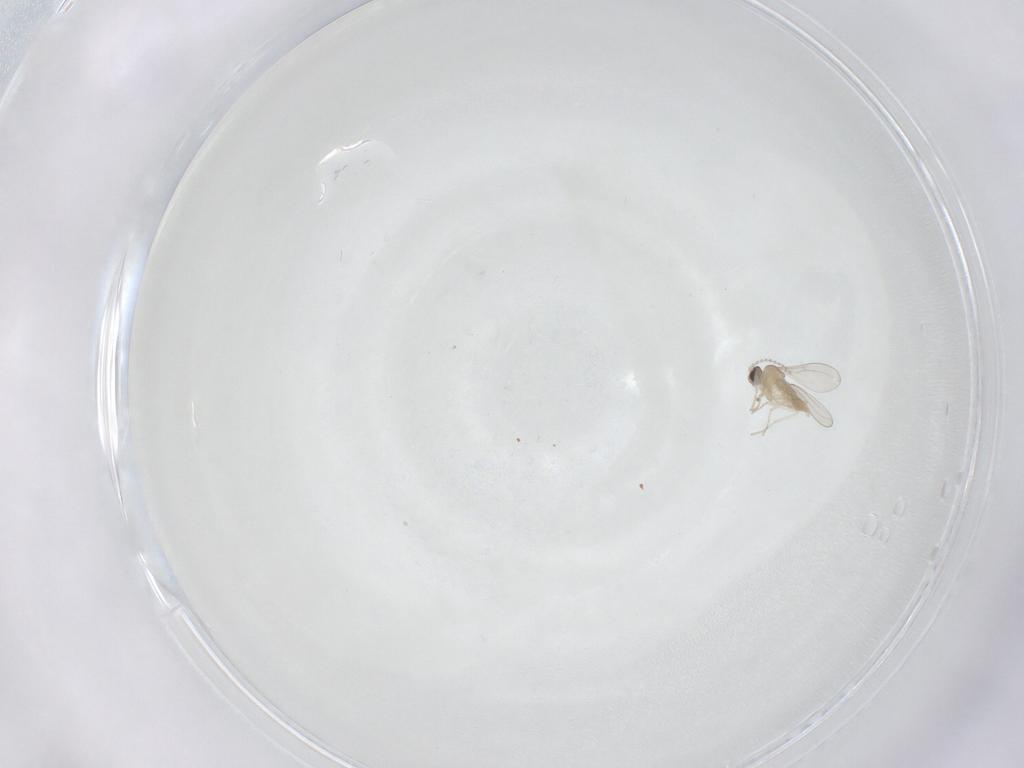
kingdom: Animalia
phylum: Arthropoda
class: Insecta
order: Diptera
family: Cecidomyiidae
